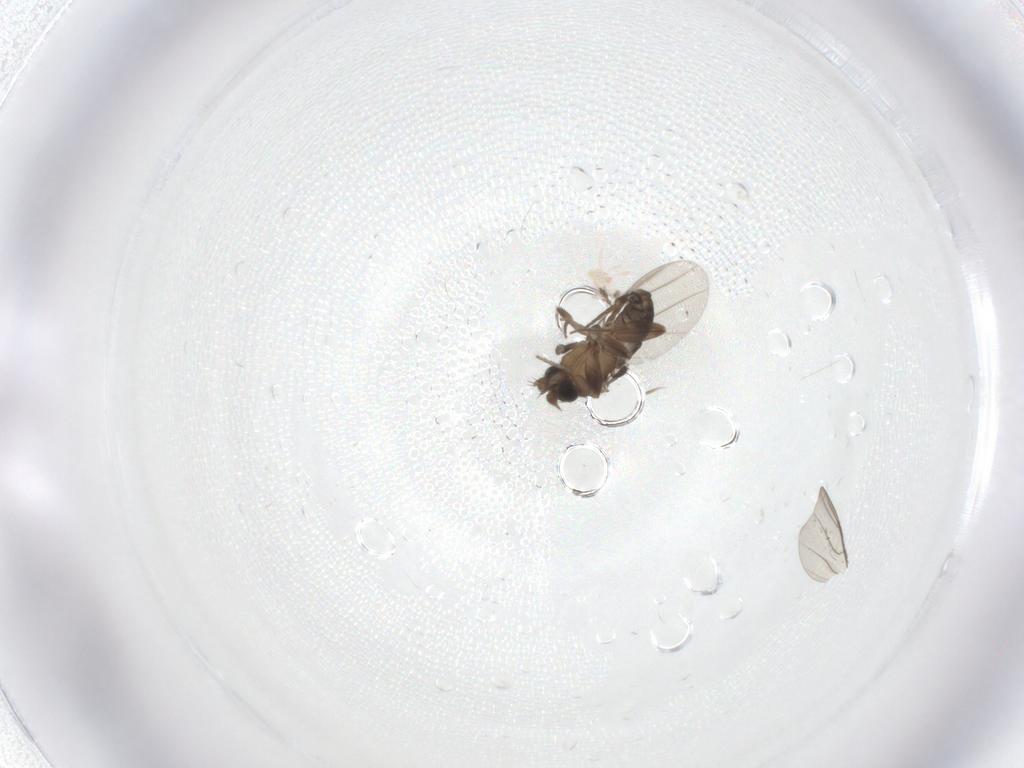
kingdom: Animalia
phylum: Arthropoda
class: Insecta
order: Diptera
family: Phoridae
